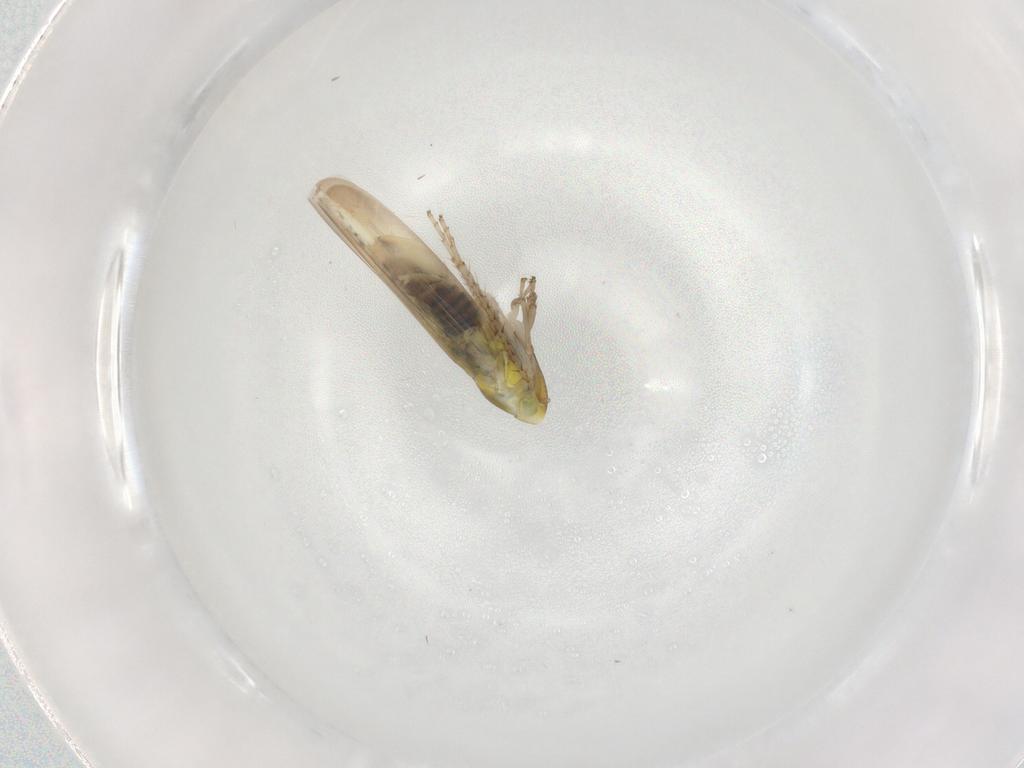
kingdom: Animalia
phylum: Arthropoda
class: Insecta
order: Hemiptera
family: Cicadellidae
